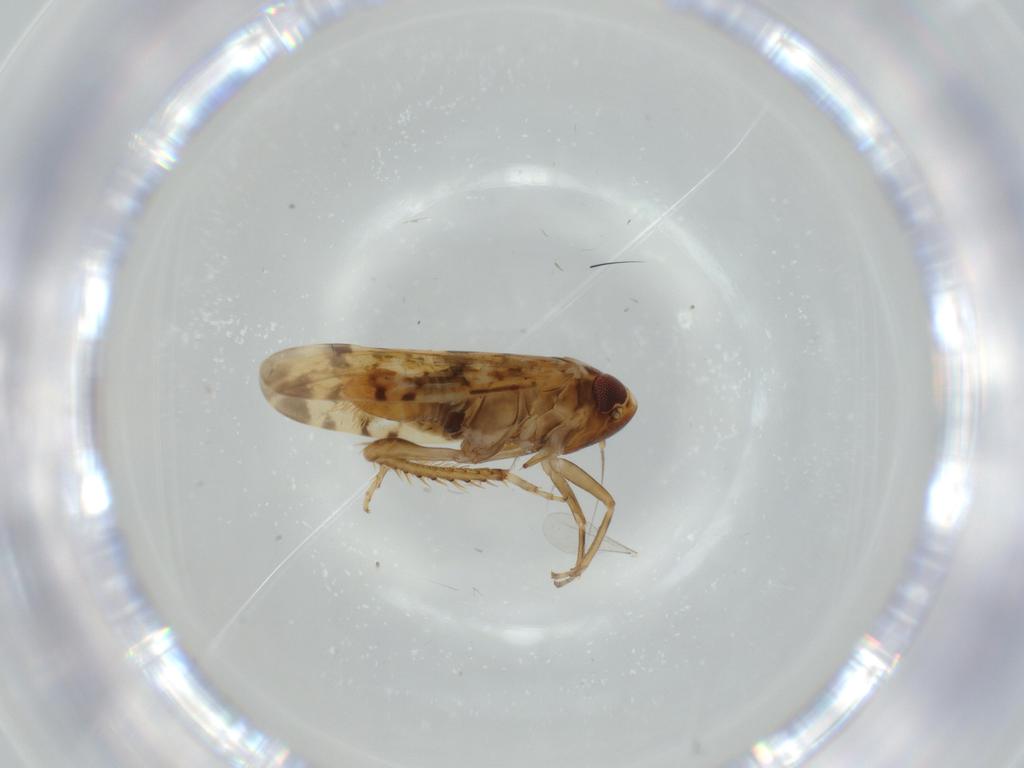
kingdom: Animalia
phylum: Arthropoda
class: Insecta
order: Hemiptera
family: Cicadellidae
